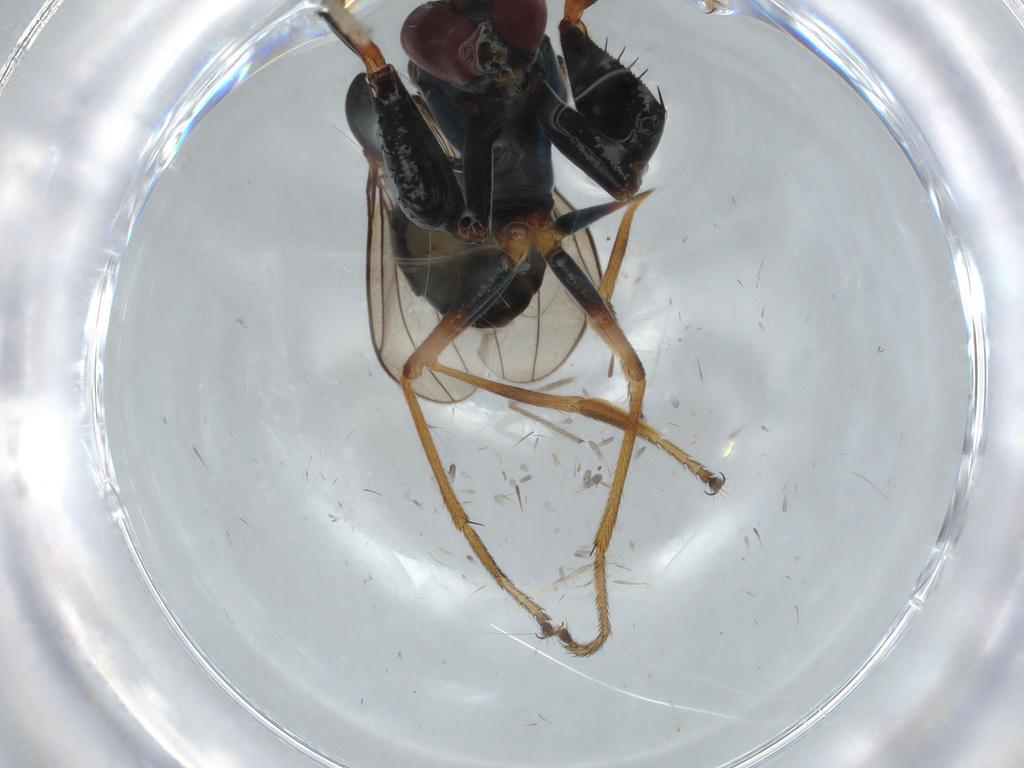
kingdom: Animalia
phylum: Arthropoda
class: Insecta
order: Diptera
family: Ephydridae
